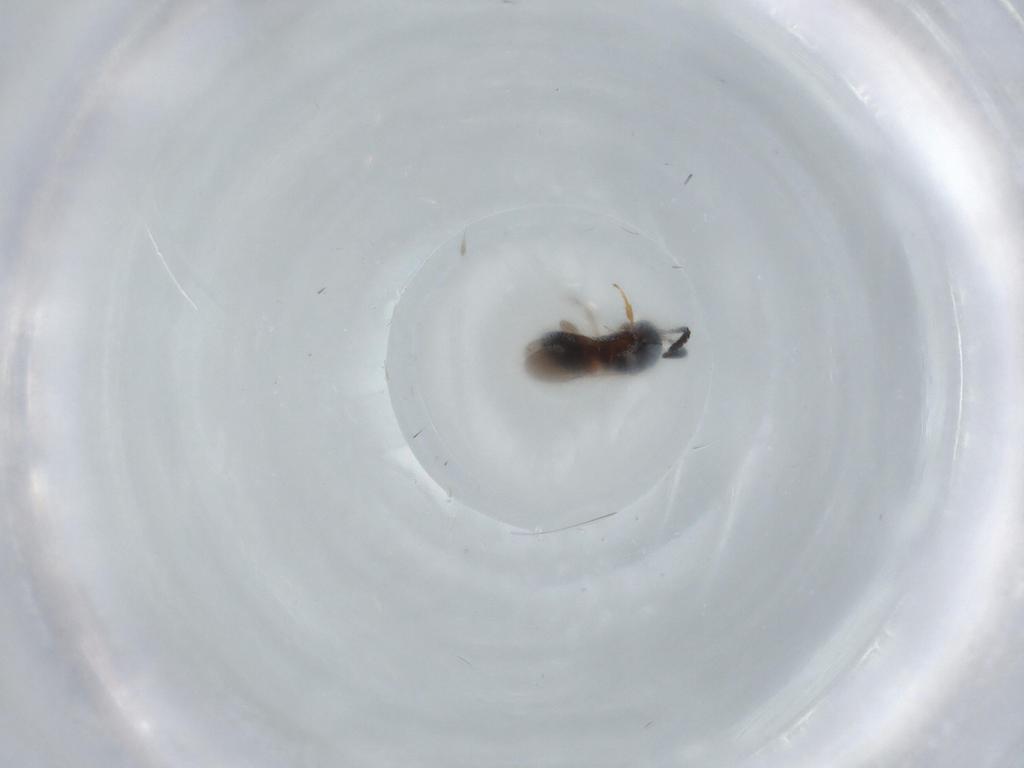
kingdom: Animalia
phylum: Arthropoda
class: Insecta
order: Hymenoptera
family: Scelionidae
